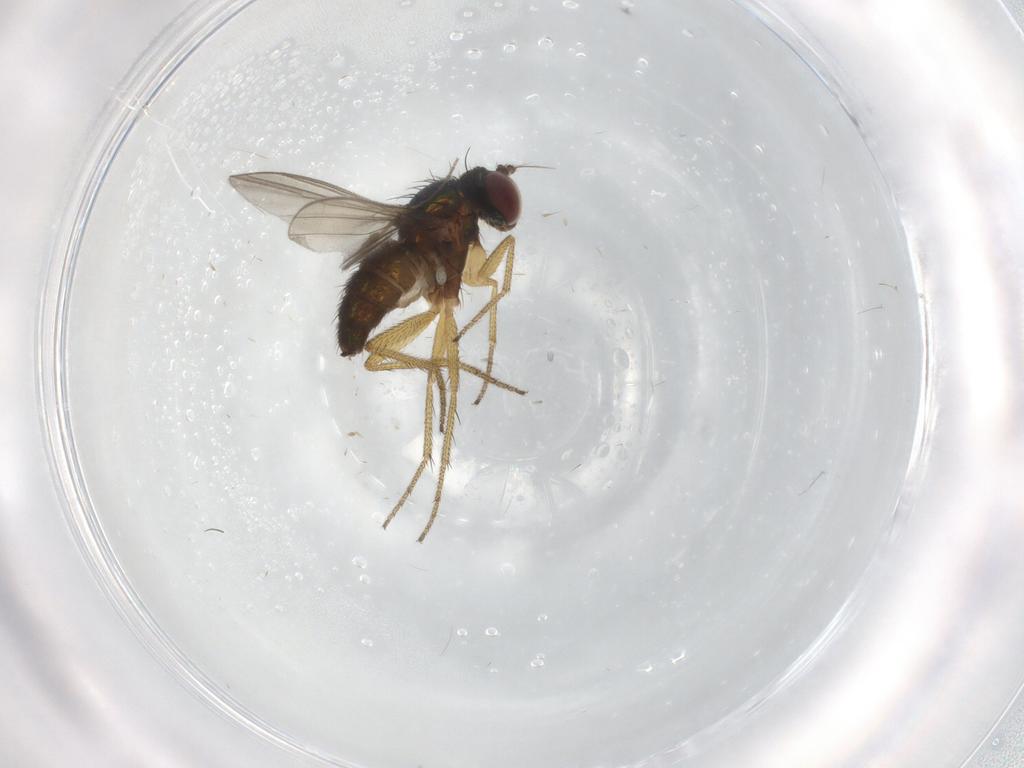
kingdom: Animalia
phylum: Arthropoda
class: Insecta
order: Diptera
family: Dolichopodidae
